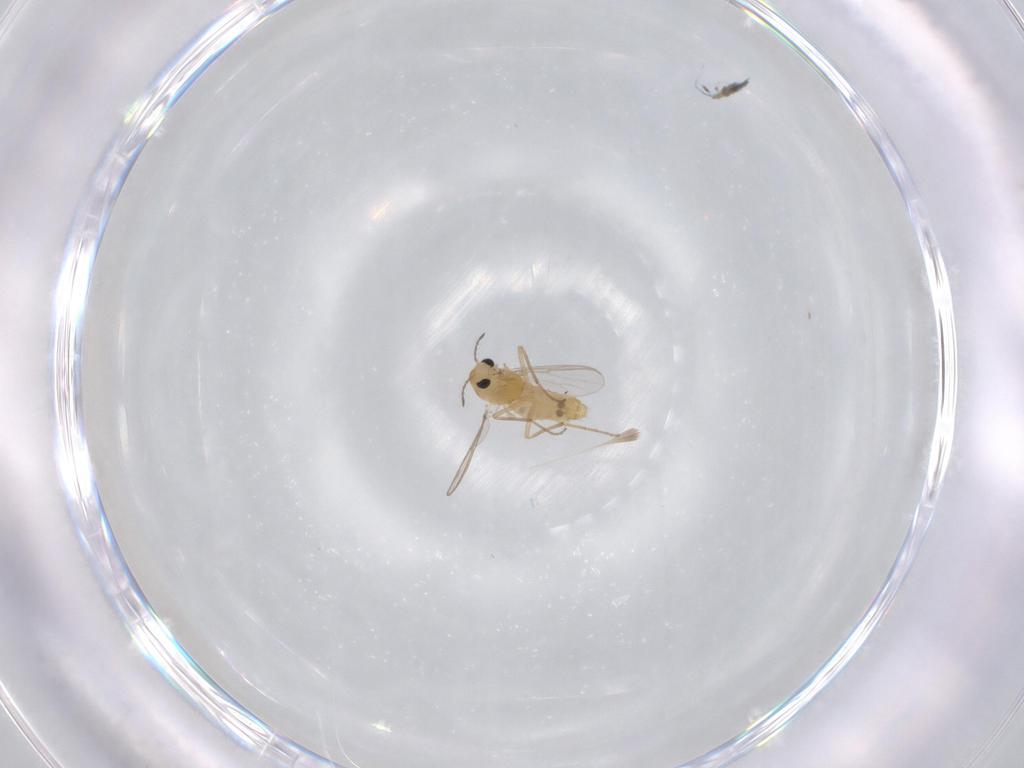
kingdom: Animalia
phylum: Arthropoda
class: Insecta
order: Diptera
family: Chironomidae
